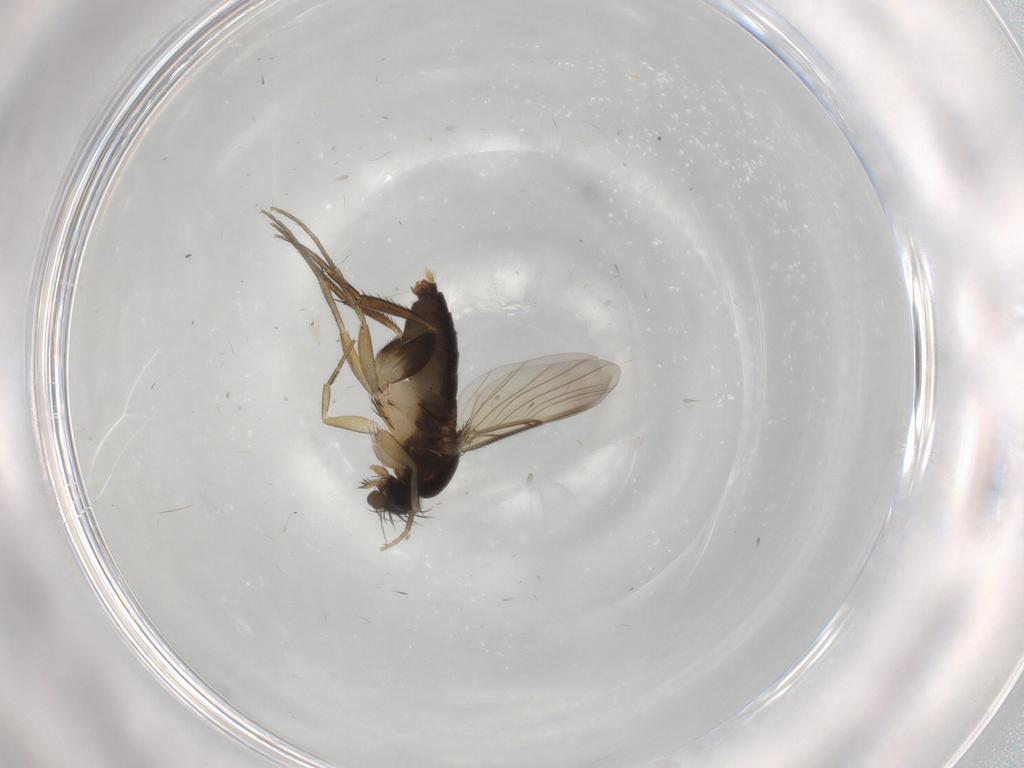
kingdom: Animalia
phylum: Arthropoda
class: Insecta
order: Diptera
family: Phoridae
